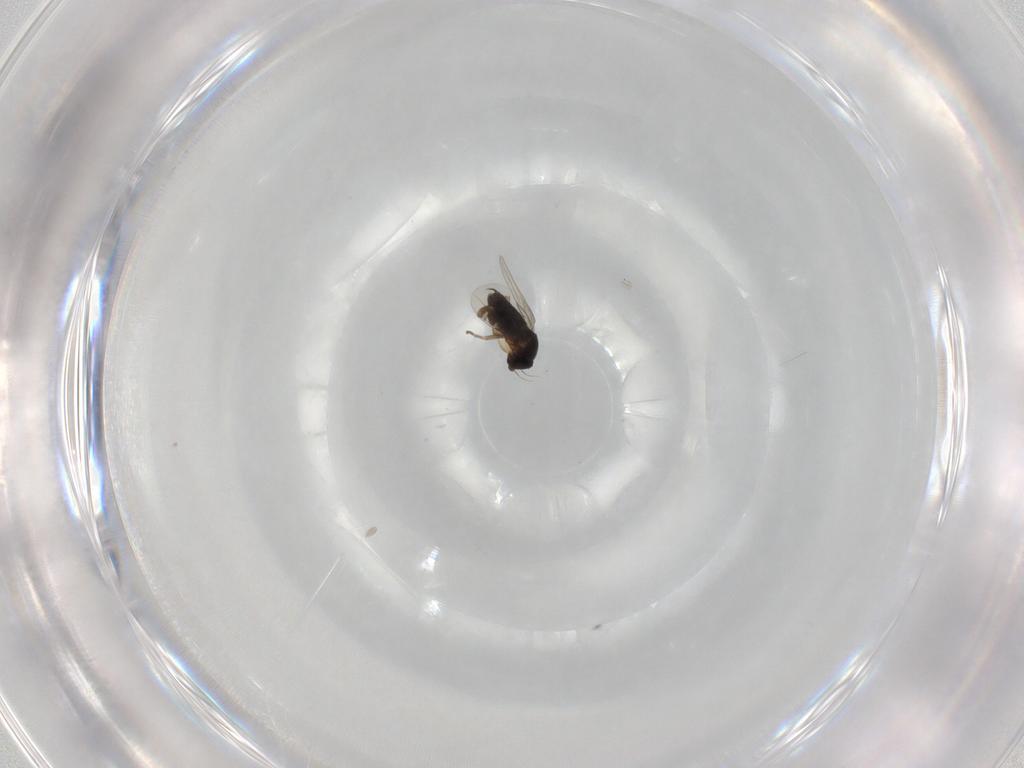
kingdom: Animalia
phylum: Arthropoda
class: Insecta
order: Diptera
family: Phoridae
